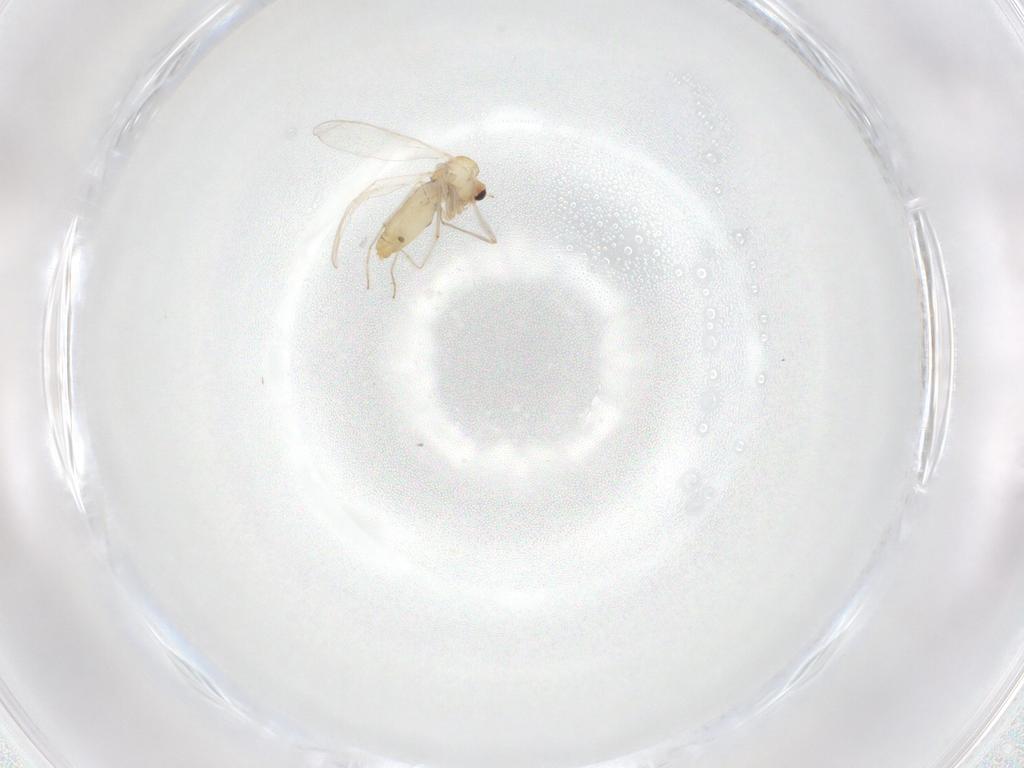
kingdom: Animalia
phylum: Arthropoda
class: Insecta
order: Diptera
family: Chironomidae
